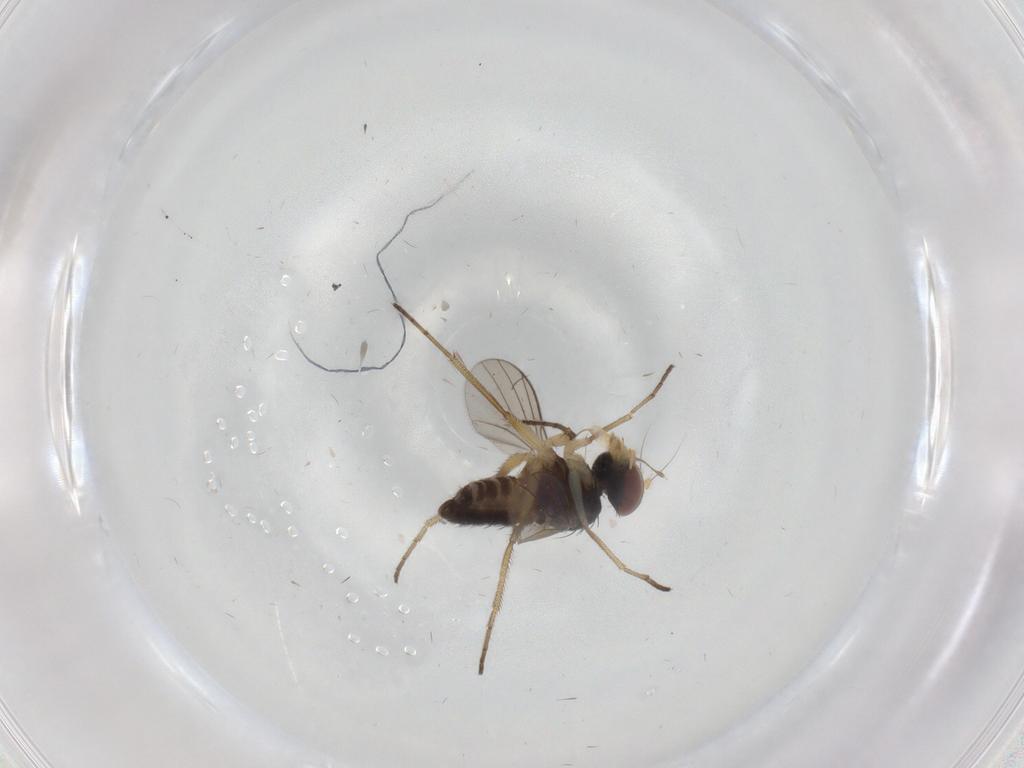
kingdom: Animalia
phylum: Arthropoda
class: Insecta
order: Diptera
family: Dolichopodidae
